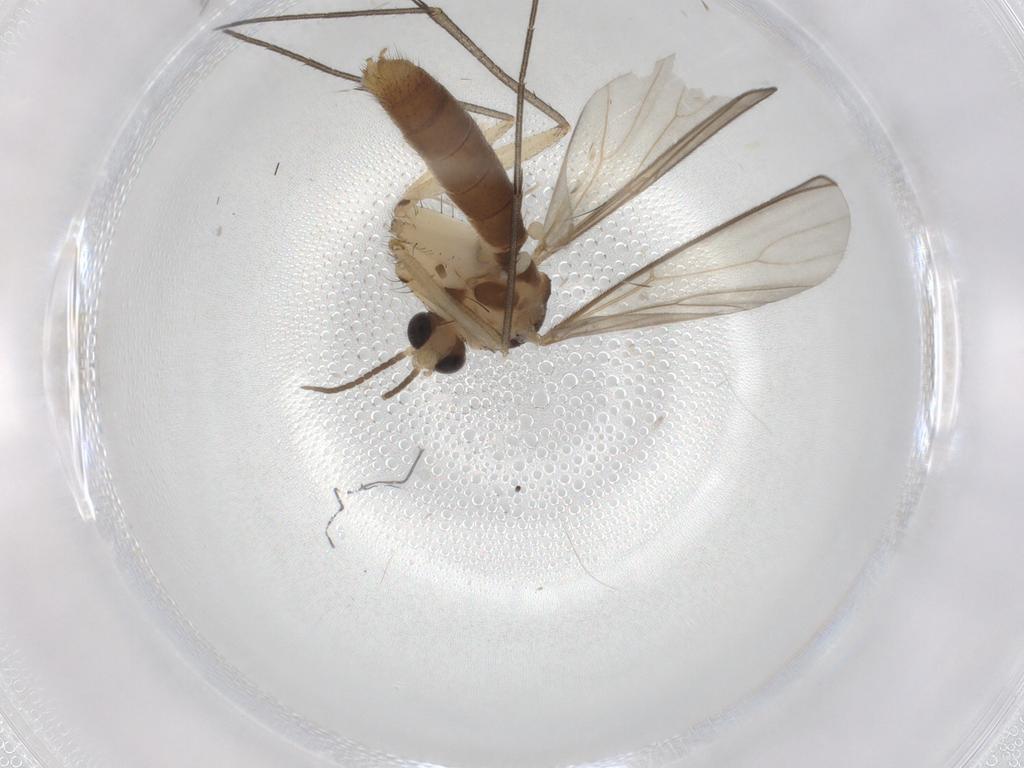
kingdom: Animalia
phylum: Arthropoda
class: Insecta
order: Diptera
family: Mycetophilidae
